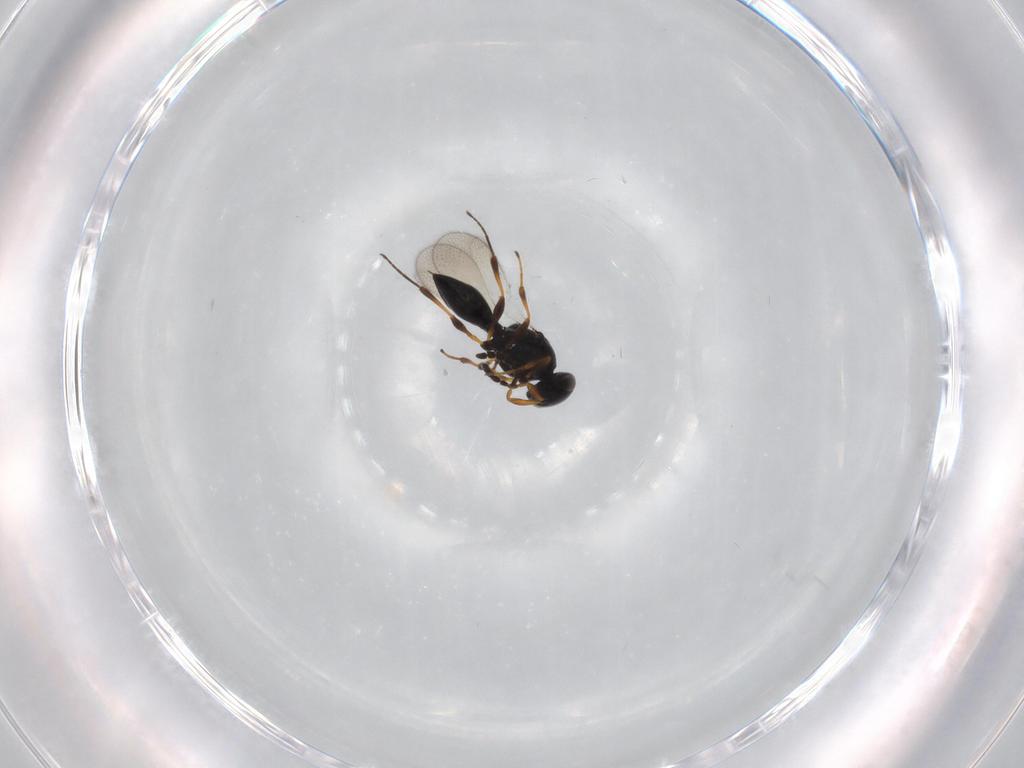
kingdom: Animalia
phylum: Arthropoda
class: Insecta
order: Hymenoptera
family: Platygastridae
